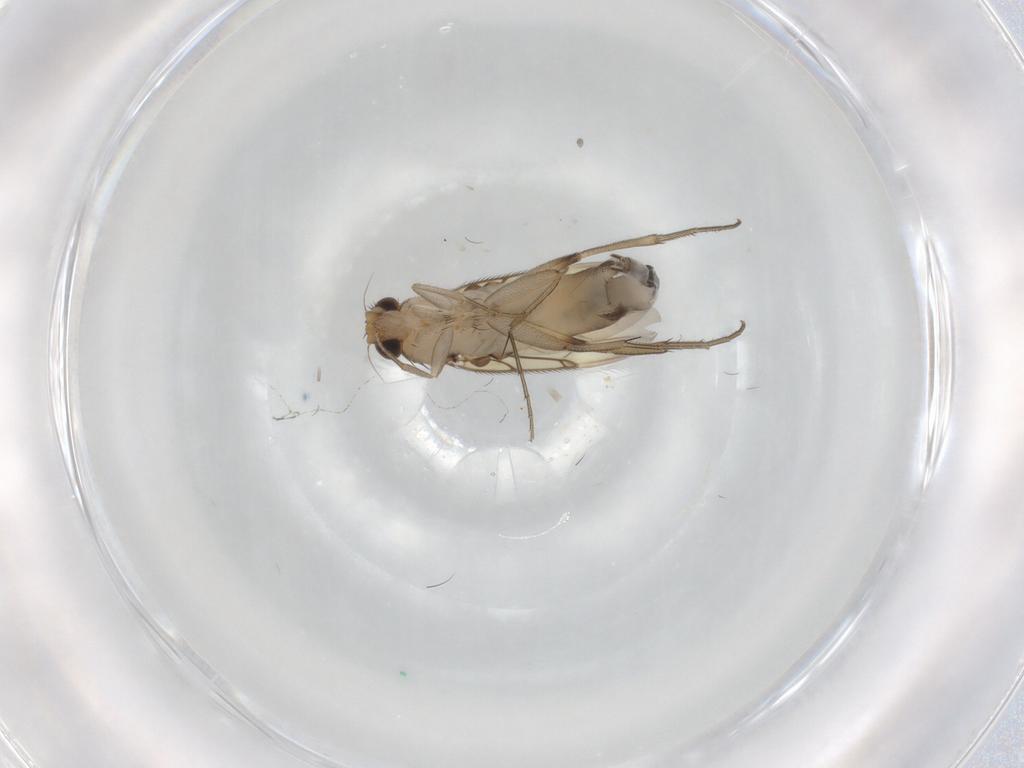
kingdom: Animalia
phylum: Arthropoda
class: Insecta
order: Diptera
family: Phoridae
